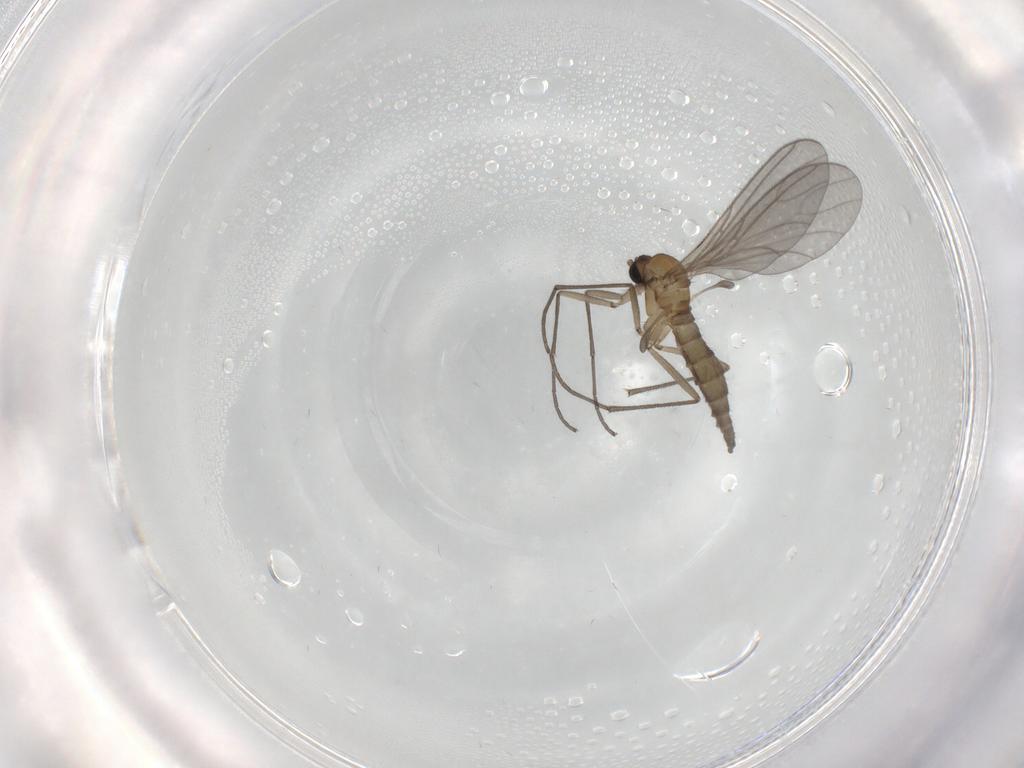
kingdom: Animalia
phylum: Arthropoda
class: Insecta
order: Diptera
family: Sciaridae
